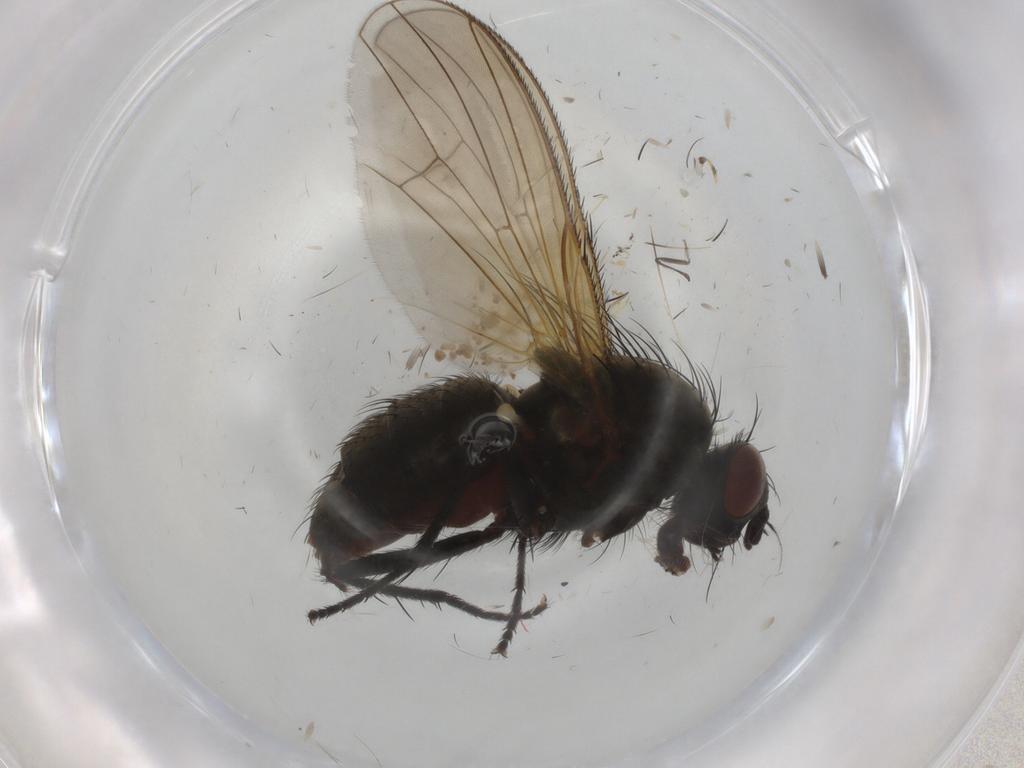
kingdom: Animalia
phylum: Arthropoda
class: Insecta
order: Diptera
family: Anthomyiidae
